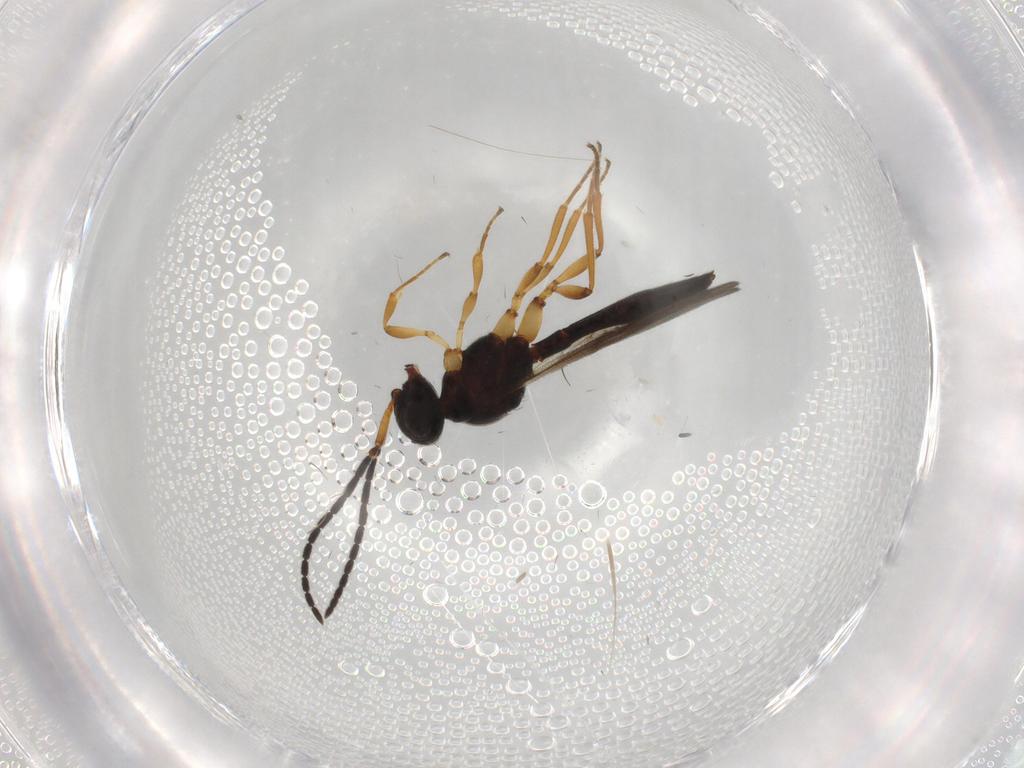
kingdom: Animalia
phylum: Arthropoda
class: Insecta
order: Hymenoptera
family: Scelionidae
